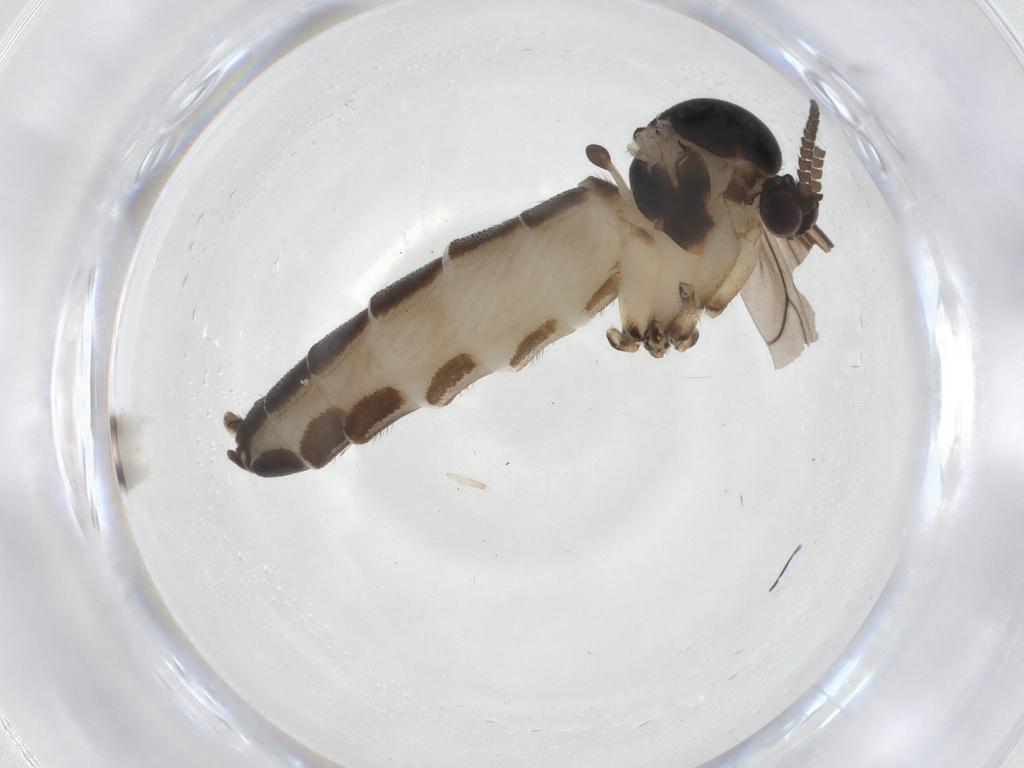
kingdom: Animalia
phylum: Arthropoda
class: Insecta
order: Diptera
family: Mycetophilidae
